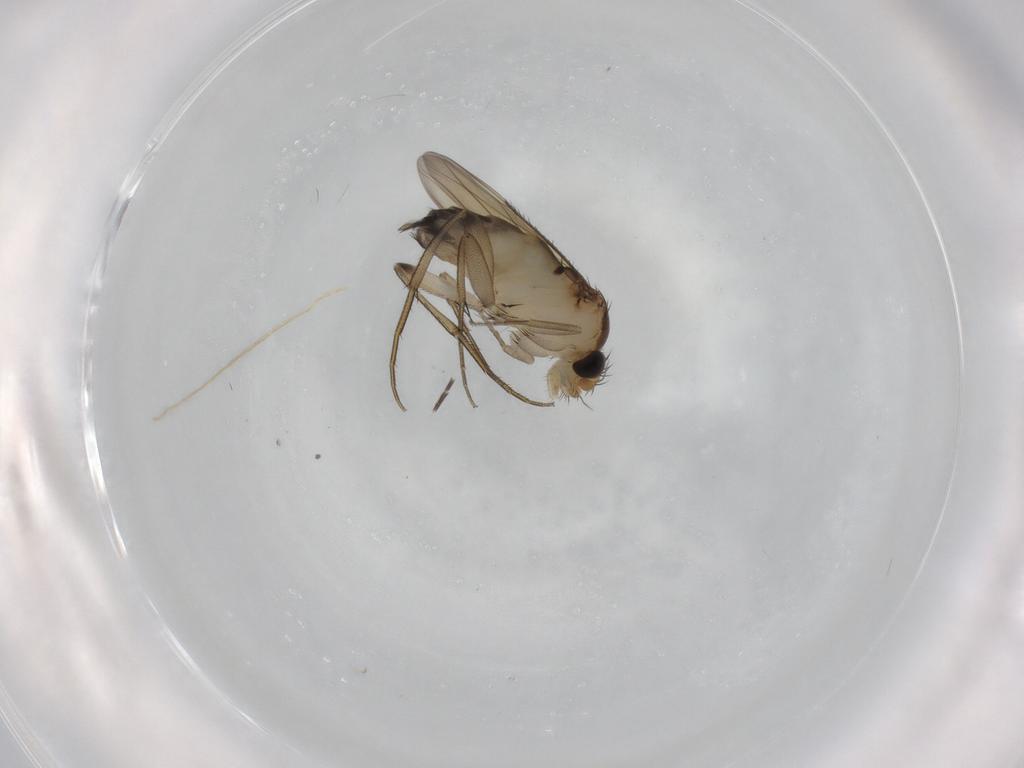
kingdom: Animalia
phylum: Arthropoda
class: Insecta
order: Diptera
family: Phoridae
